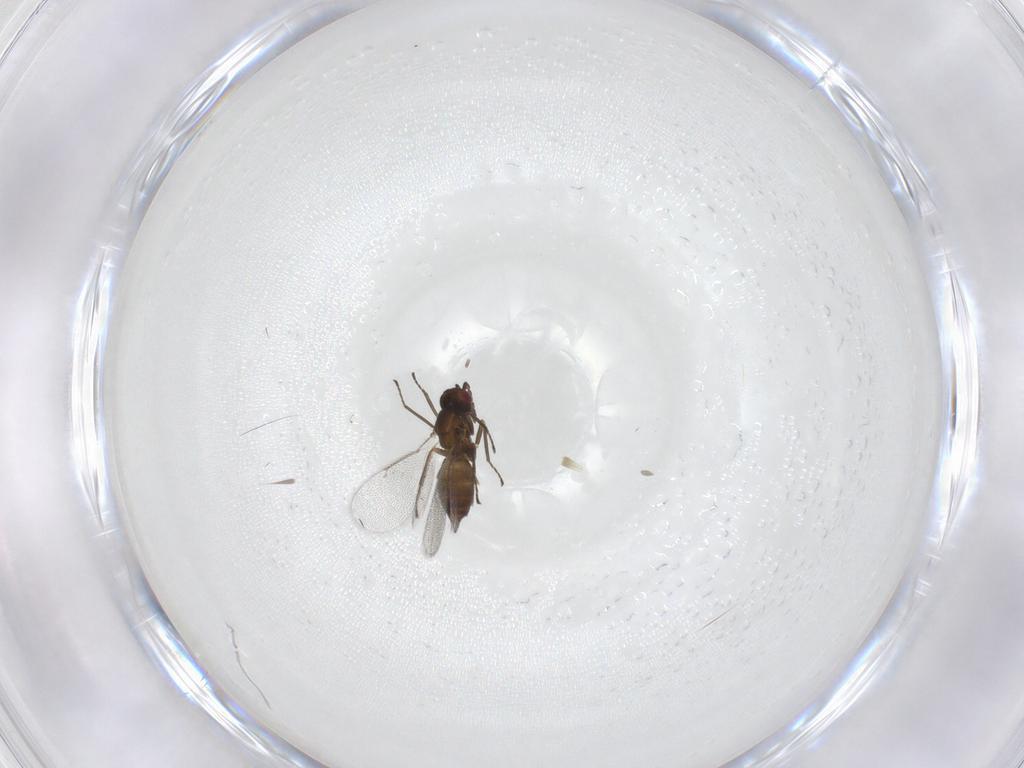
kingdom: Animalia
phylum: Arthropoda
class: Insecta
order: Hymenoptera
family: Eulophidae
